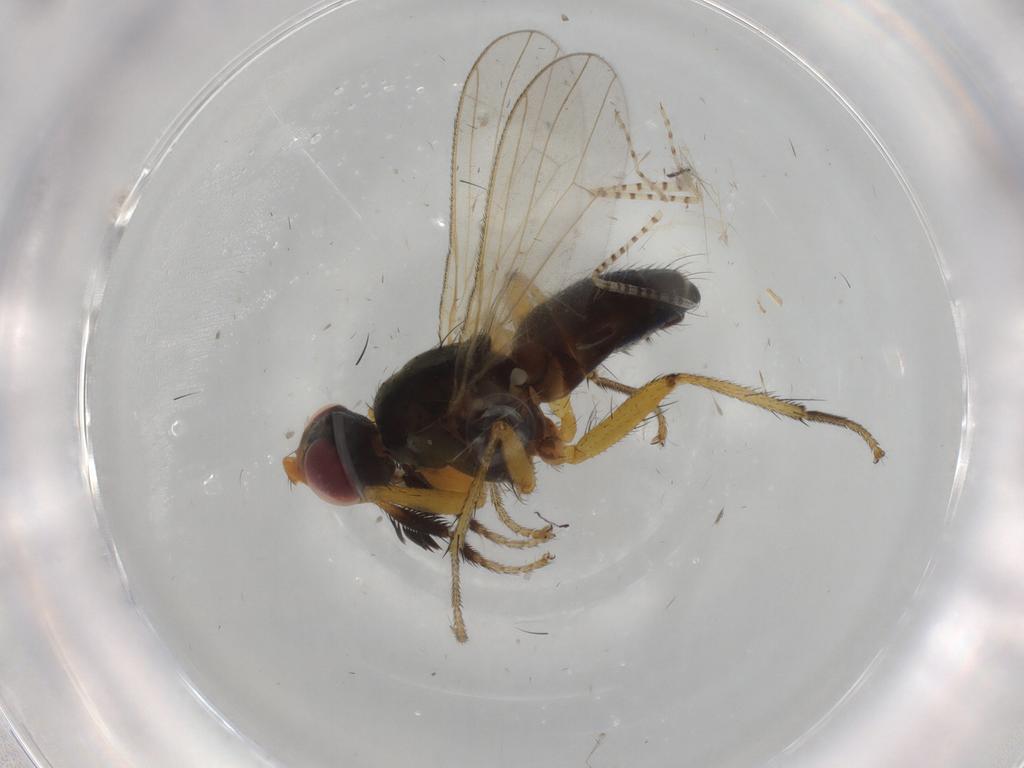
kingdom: Animalia
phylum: Arthropoda
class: Insecta
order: Diptera
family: Muscidae
